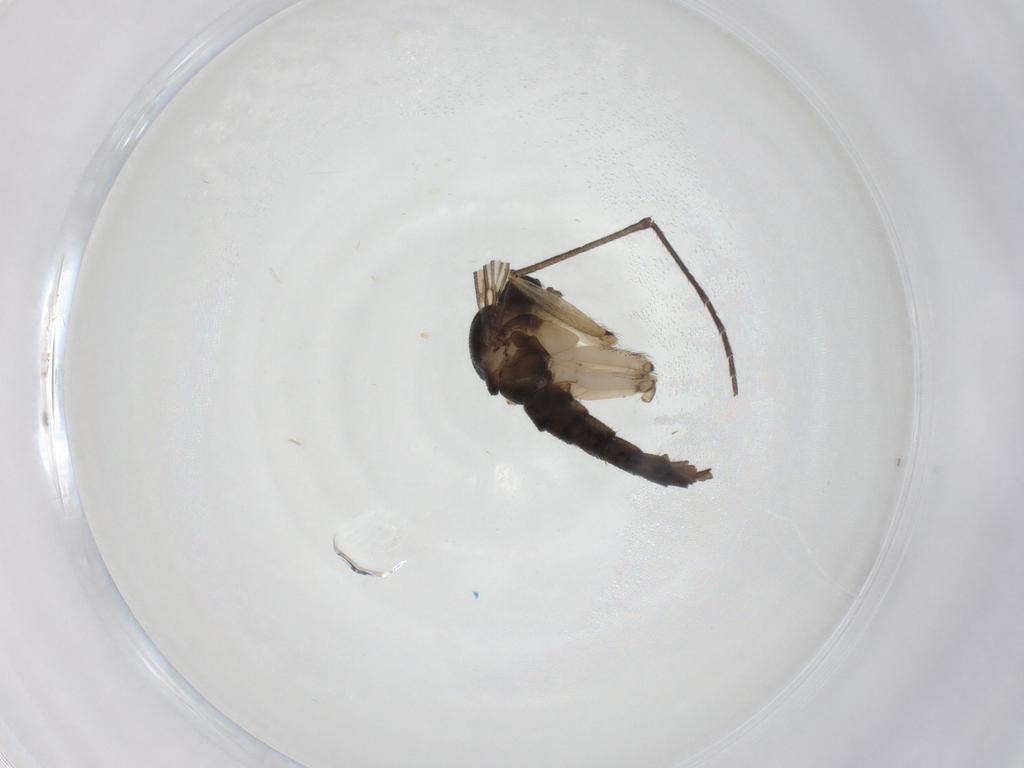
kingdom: Animalia
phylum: Arthropoda
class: Insecta
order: Diptera
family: Sciaridae
